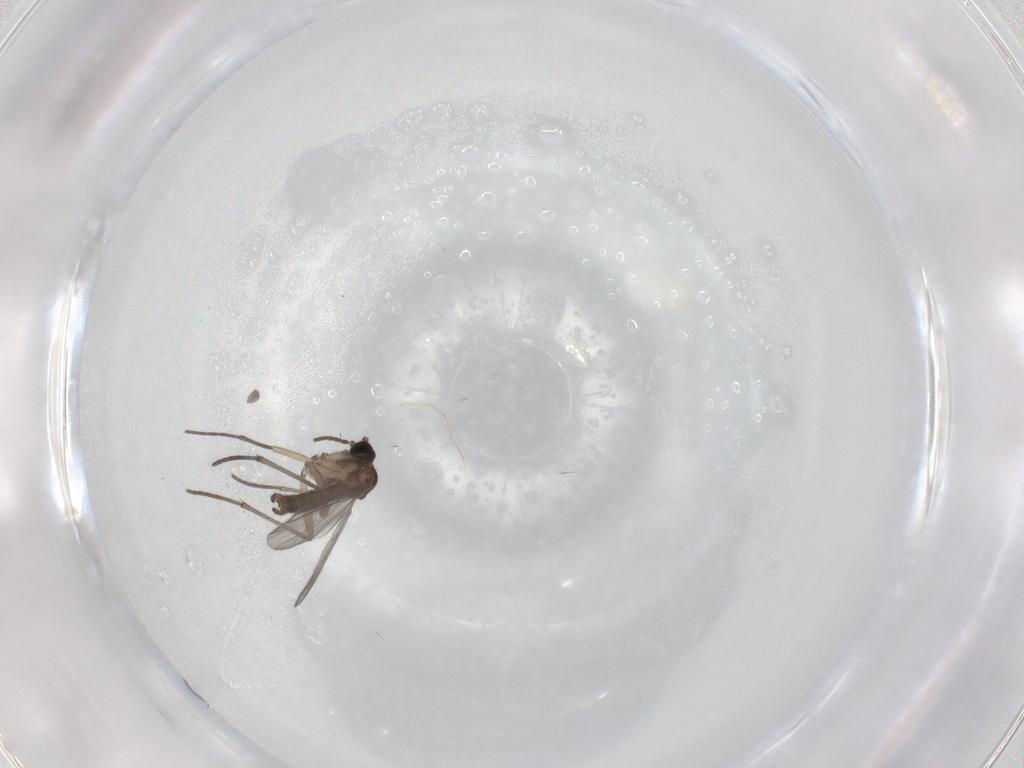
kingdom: Animalia
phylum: Arthropoda
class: Insecta
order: Diptera
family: Sciaridae
